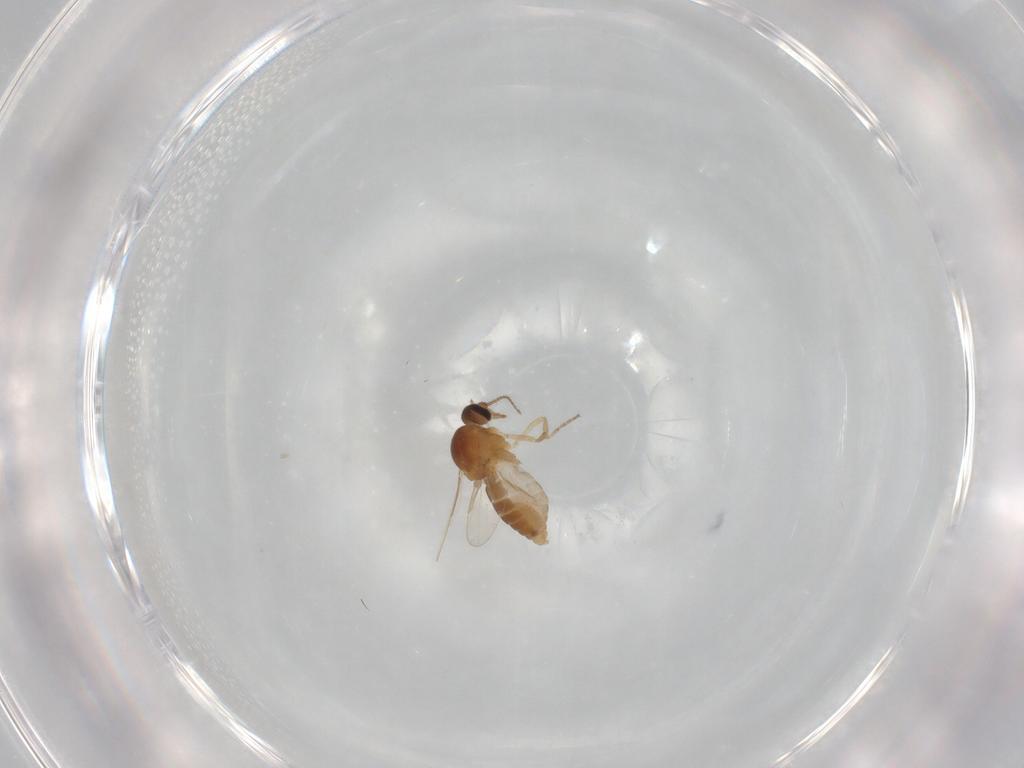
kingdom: Animalia
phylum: Arthropoda
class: Insecta
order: Diptera
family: Ceratopogonidae
